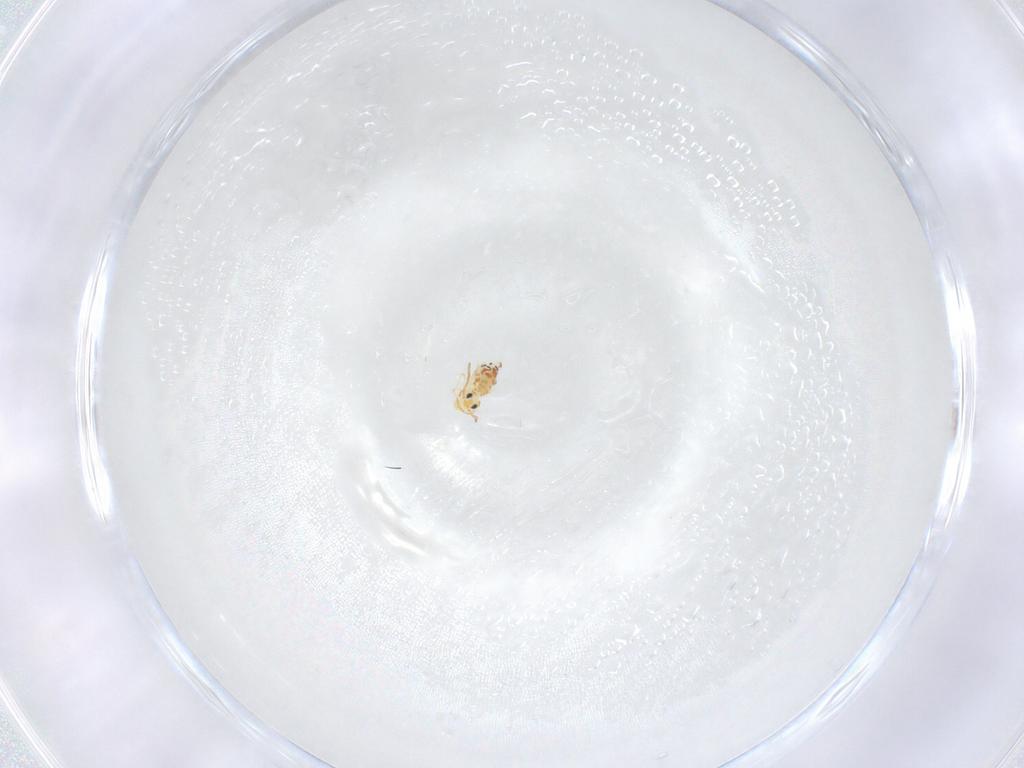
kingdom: Animalia
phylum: Arthropoda
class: Collembola
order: Symphypleona
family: Bourletiellidae
